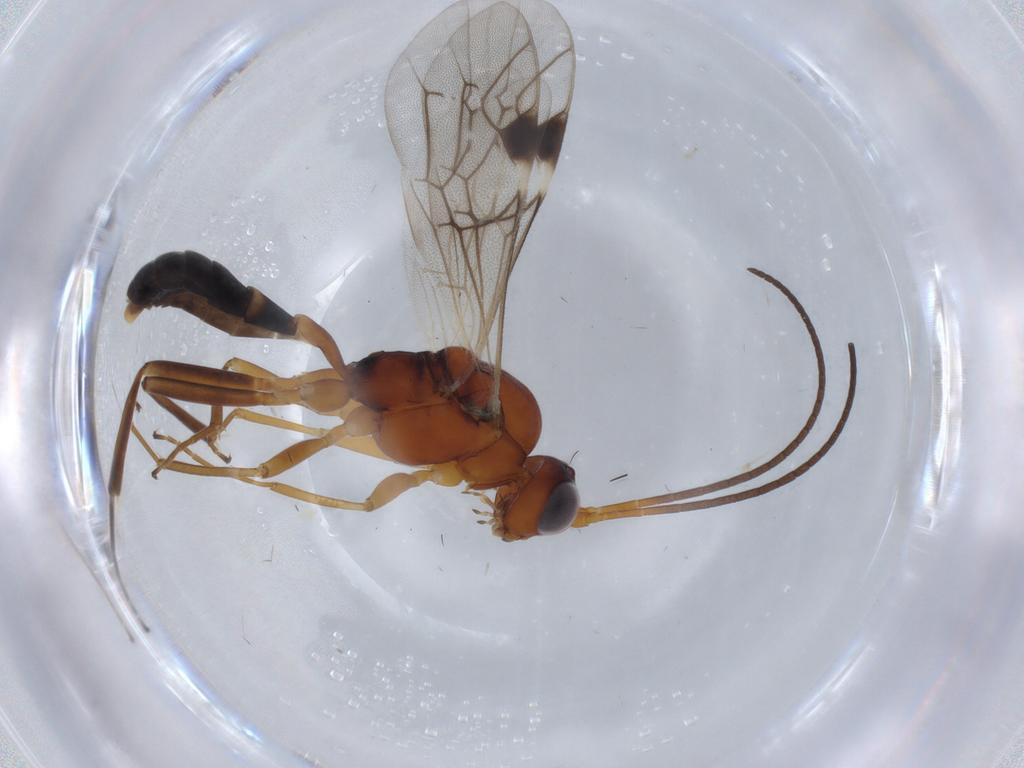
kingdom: Animalia
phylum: Arthropoda
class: Insecta
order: Hymenoptera
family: Ichneumonidae
